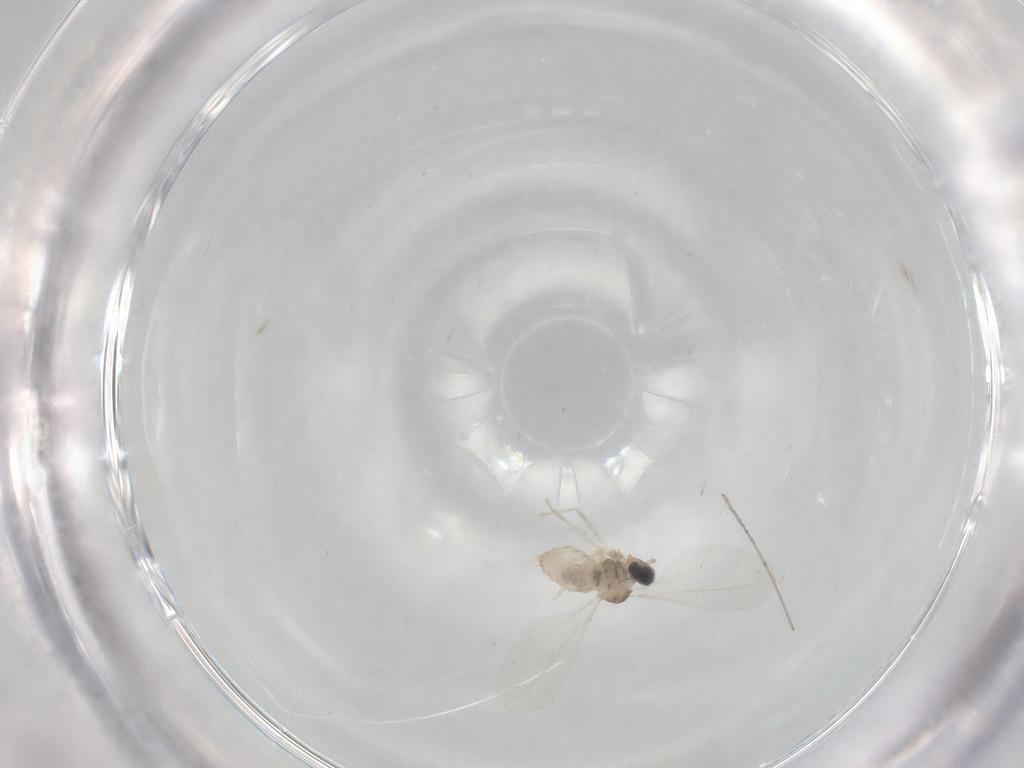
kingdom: Animalia
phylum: Arthropoda
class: Insecta
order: Diptera
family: Cecidomyiidae
